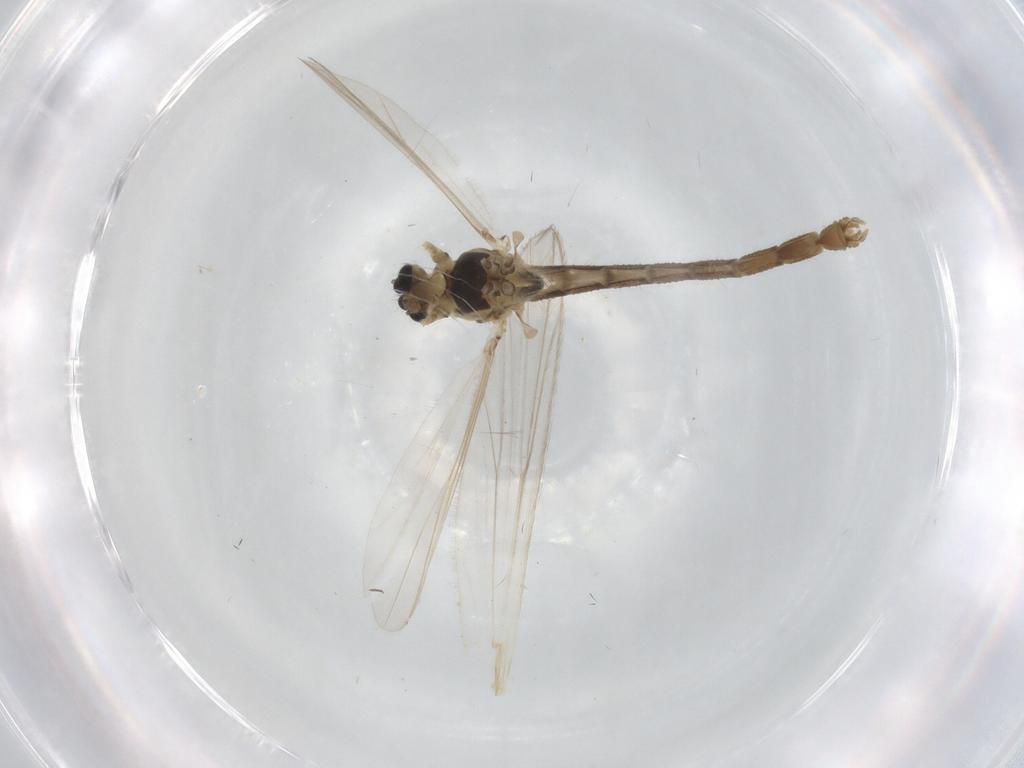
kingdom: Animalia
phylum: Arthropoda
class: Insecta
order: Diptera
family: Chironomidae
